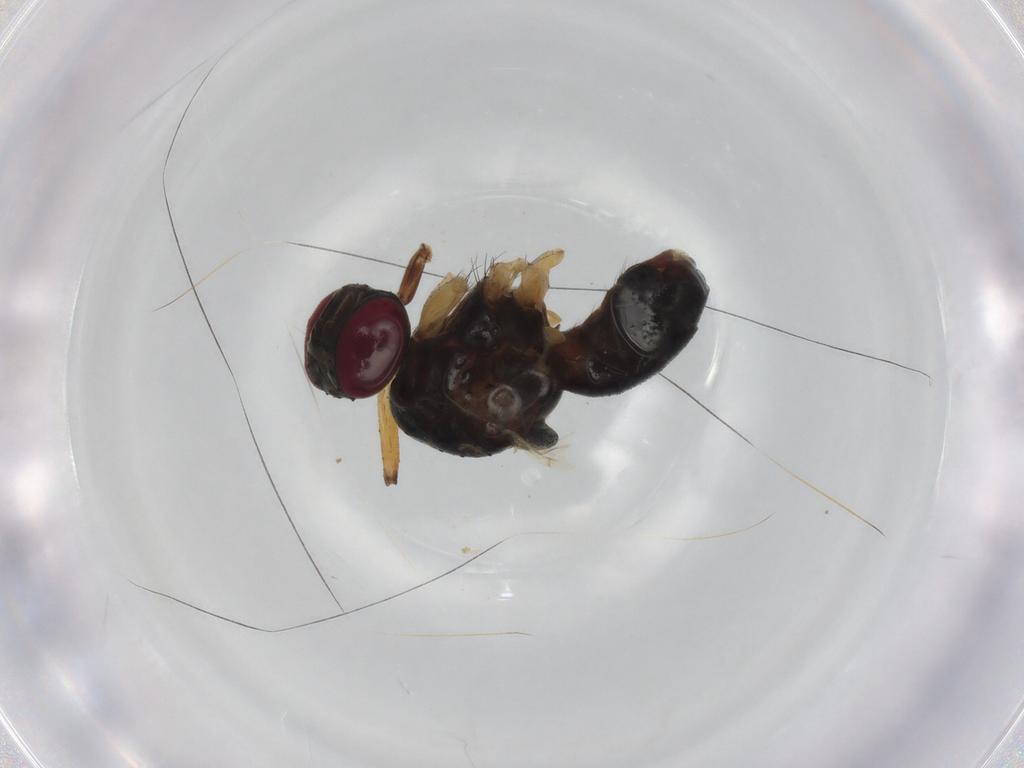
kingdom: Animalia
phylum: Arthropoda
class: Insecta
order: Diptera
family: Muscidae
